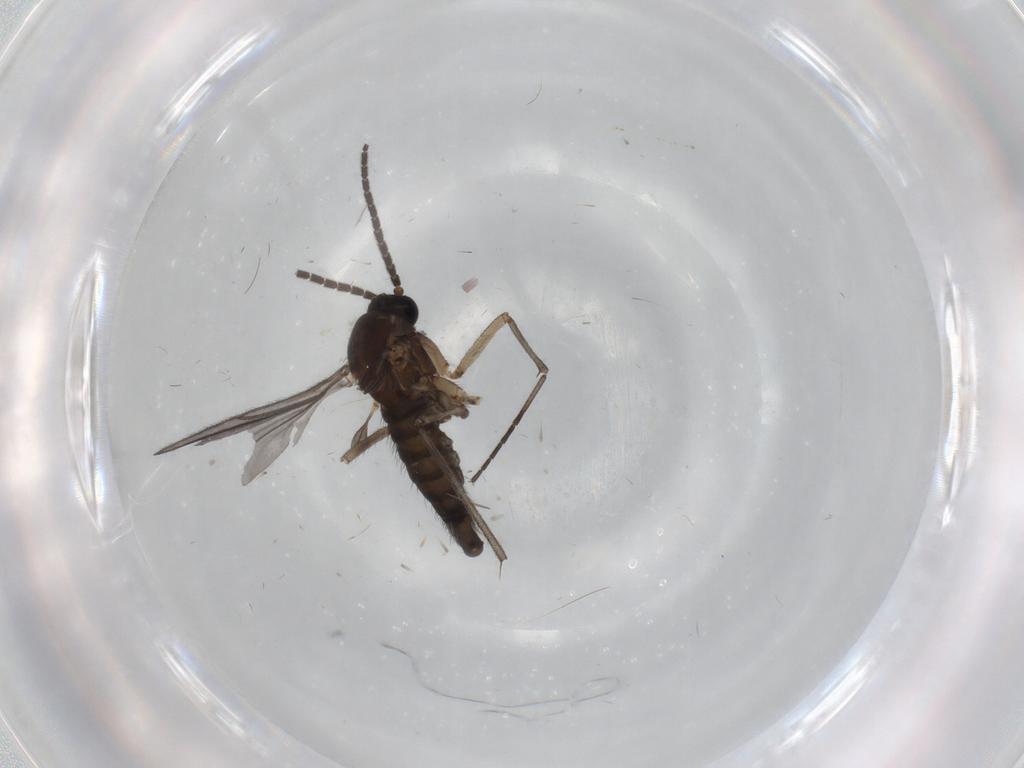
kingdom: Animalia
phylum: Arthropoda
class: Insecta
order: Diptera
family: Sciaridae
